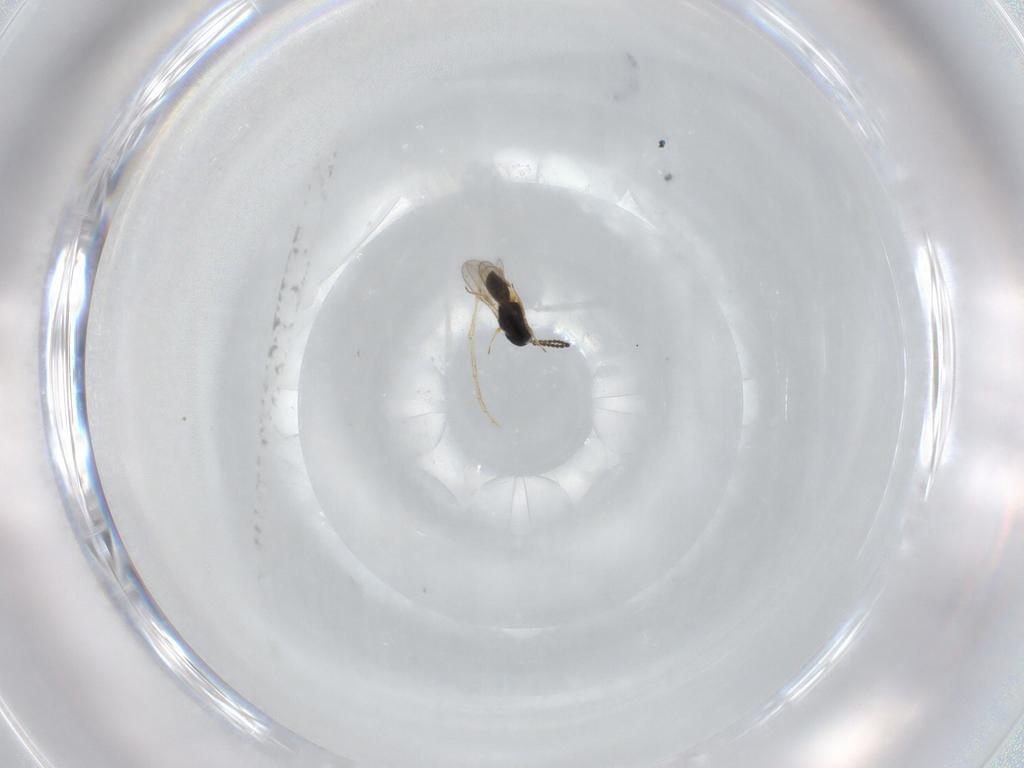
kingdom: Animalia
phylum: Arthropoda
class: Insecta
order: Hymenoptera
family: Scelionidae
